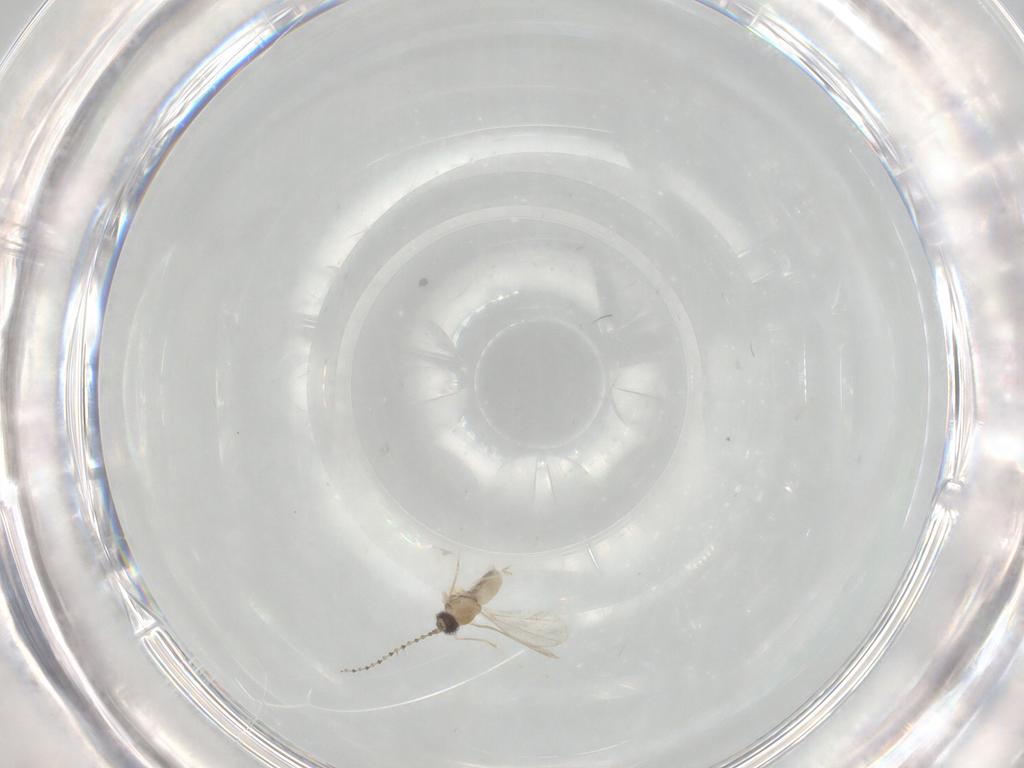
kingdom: Animalia
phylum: Arthropoda
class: Insecta
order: Diptera
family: Cecidomyiidae
